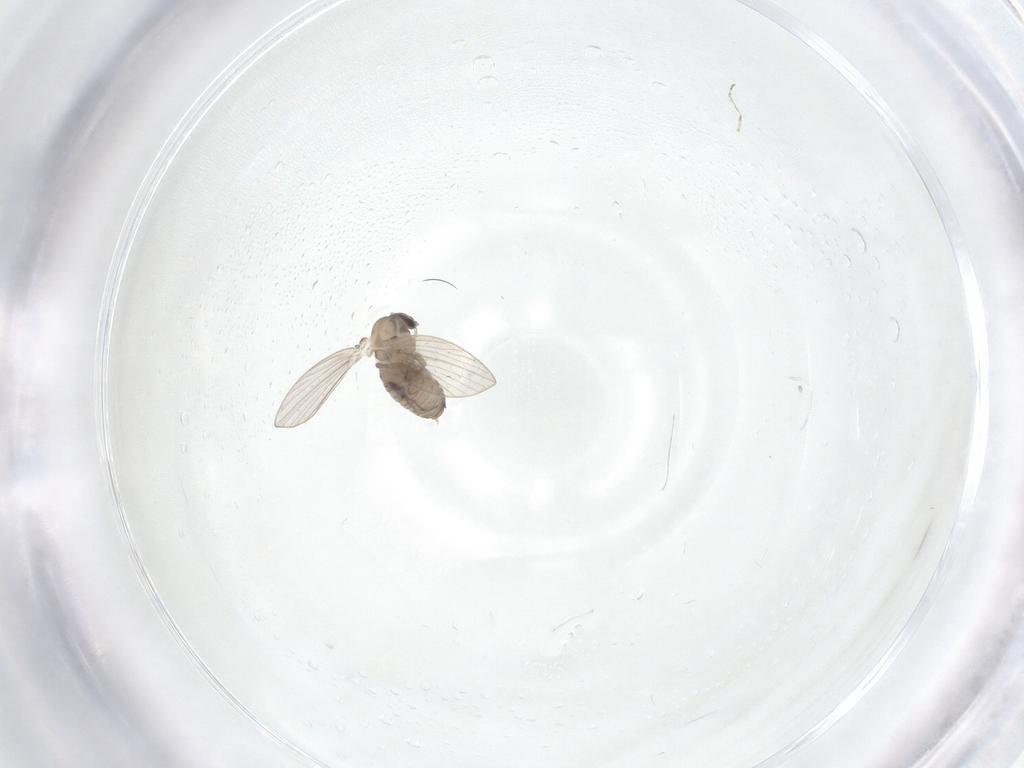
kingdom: Animalia
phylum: Arthropoda
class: Insecta
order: Diptera
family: Psychodidae
